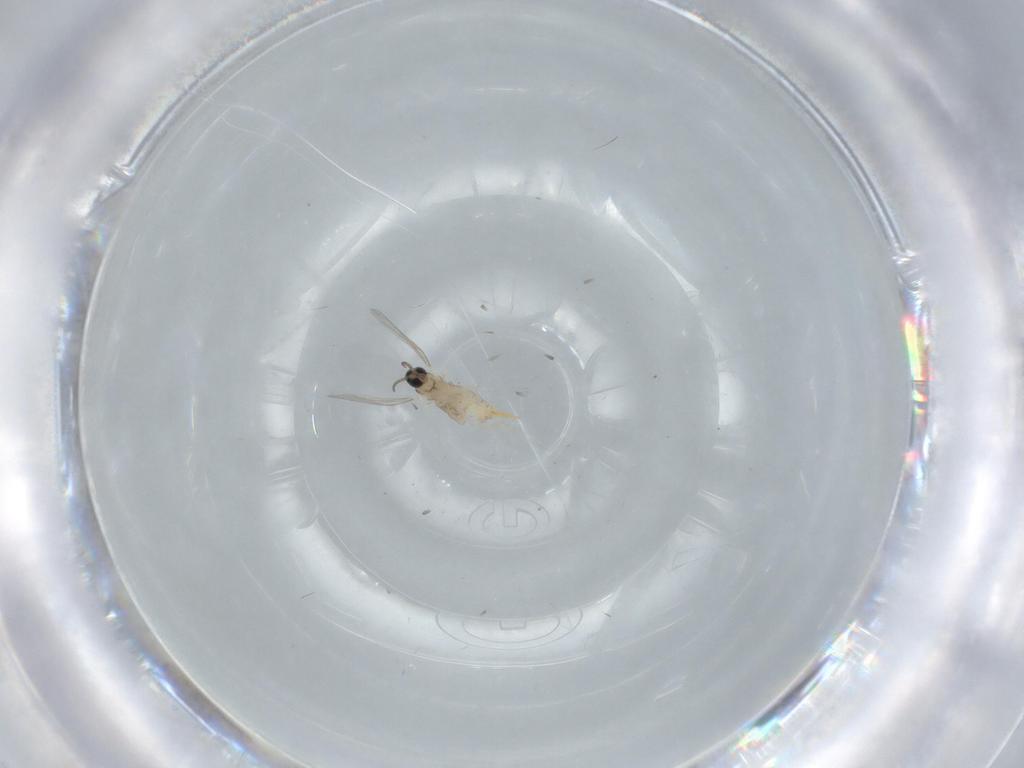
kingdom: Animalia
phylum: Arthropoda
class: Insecta
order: Diptera
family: Cecidomyiidae
